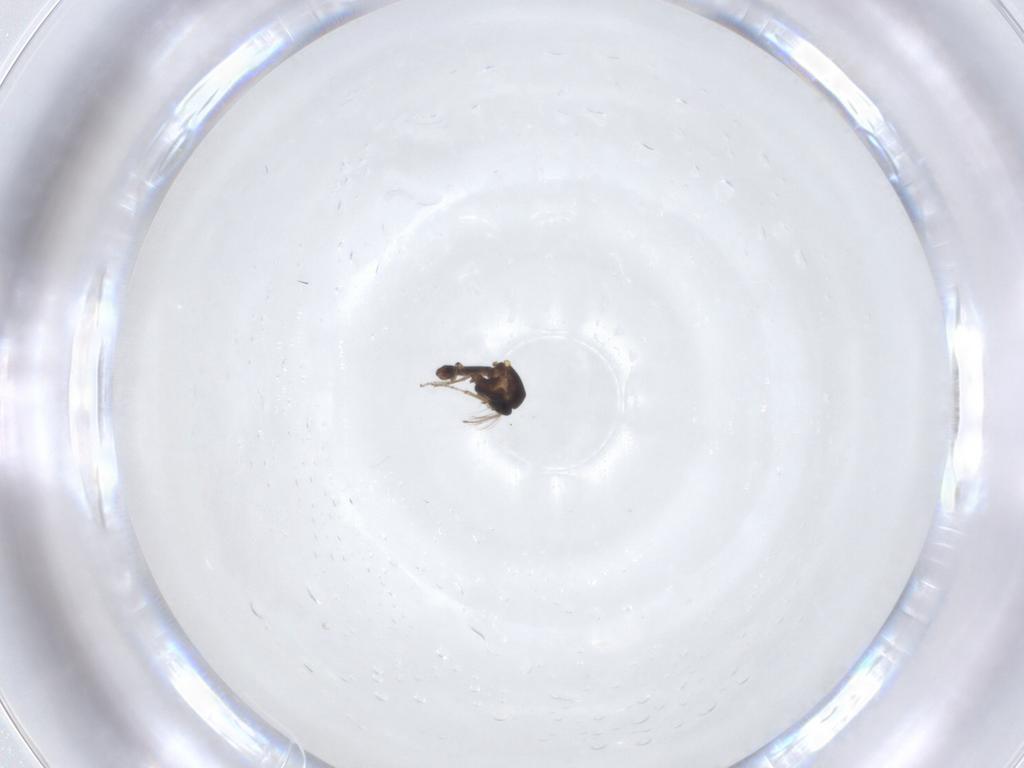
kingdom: Animalia
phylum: Arthropoda
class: Insecta
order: Diptera
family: Ceratopogonidae
